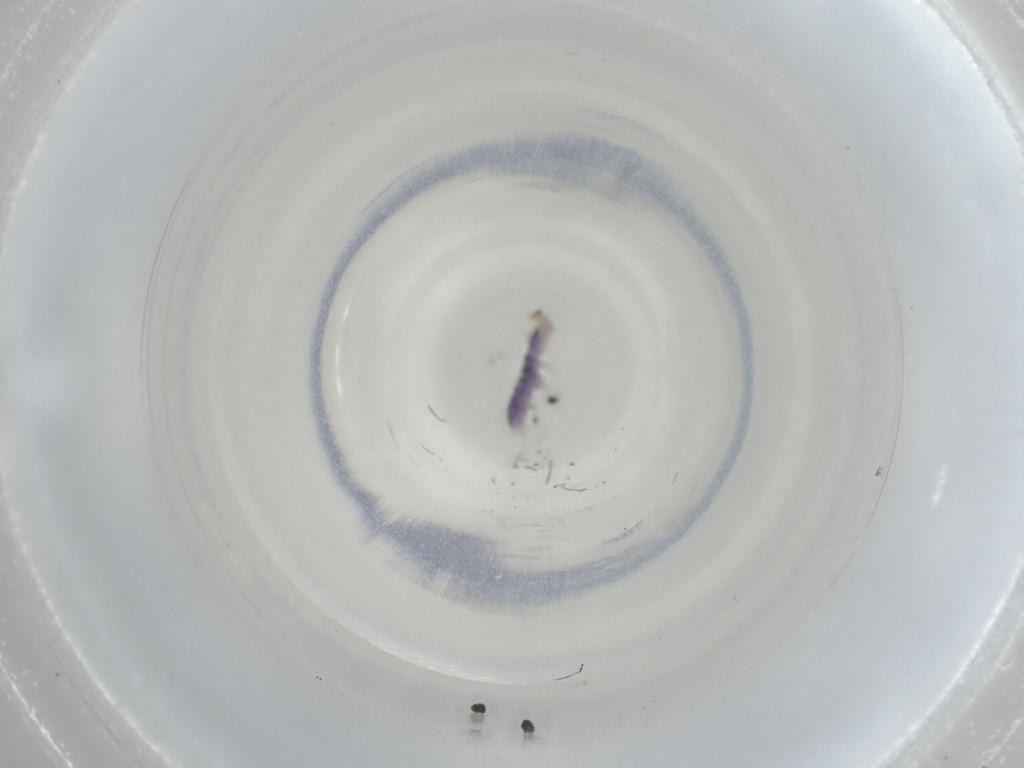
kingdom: Animalia
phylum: Arthropoda
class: Collembola
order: Entomobryomorpha
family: Isotomidae
